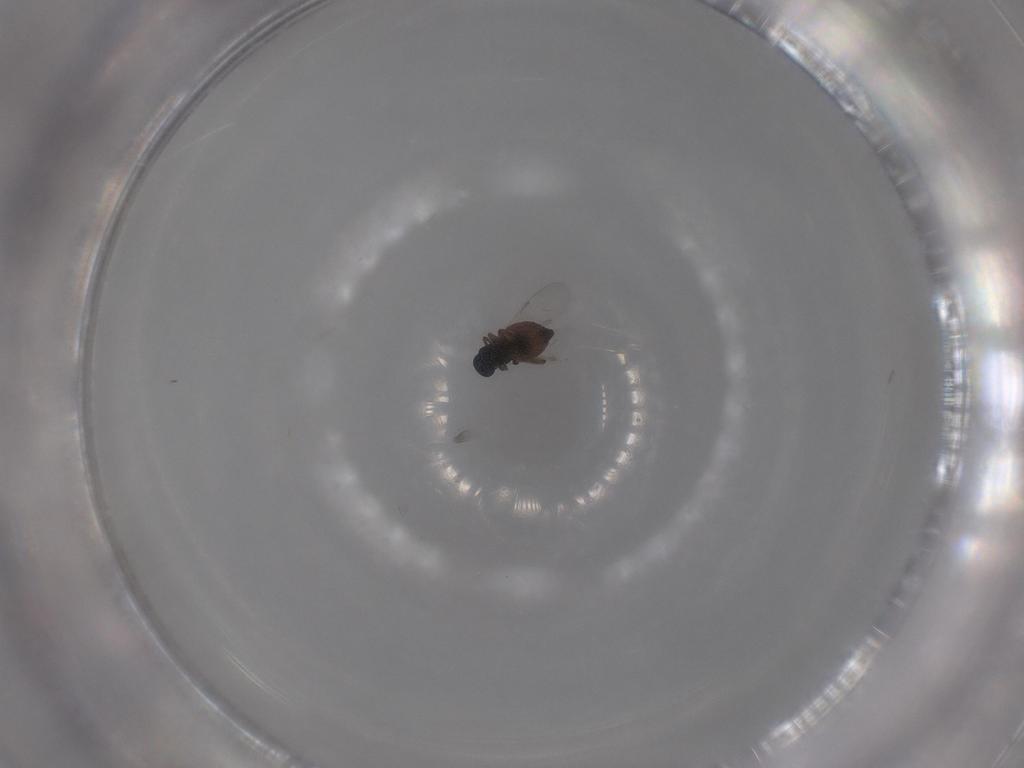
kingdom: Animalia
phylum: Arthropoda
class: Insecta
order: Diptera
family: Ceratopogonidae
